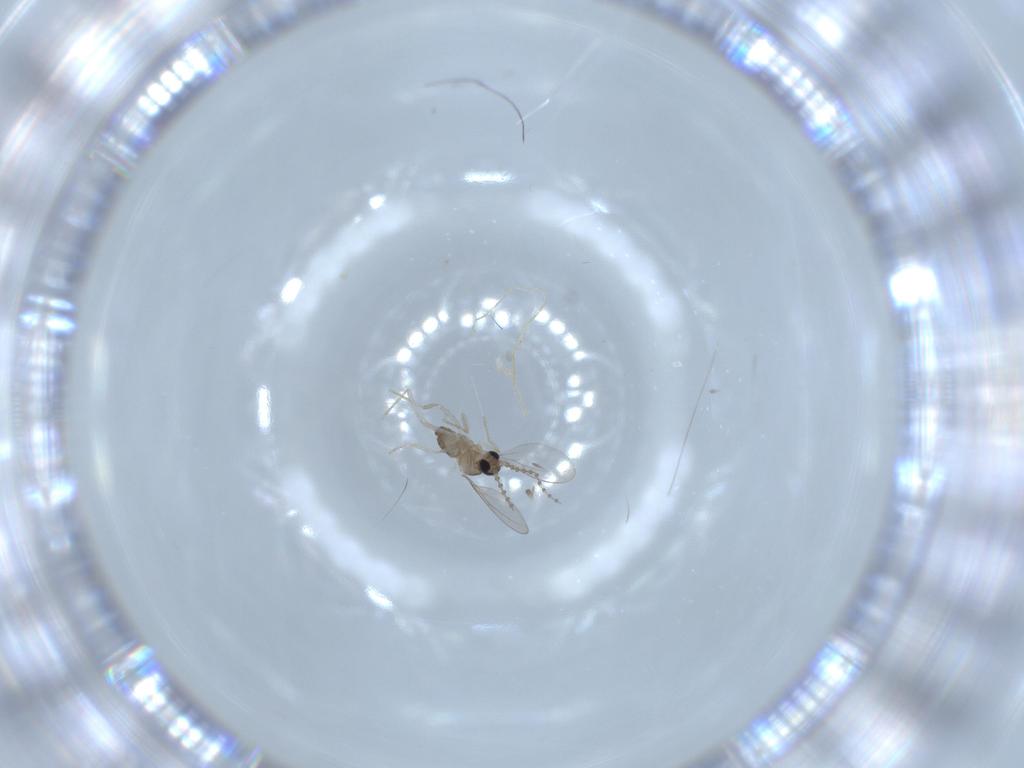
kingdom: Animalia
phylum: Arthropoda
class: Insecta
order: Diptera
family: Cecidomyiidae
